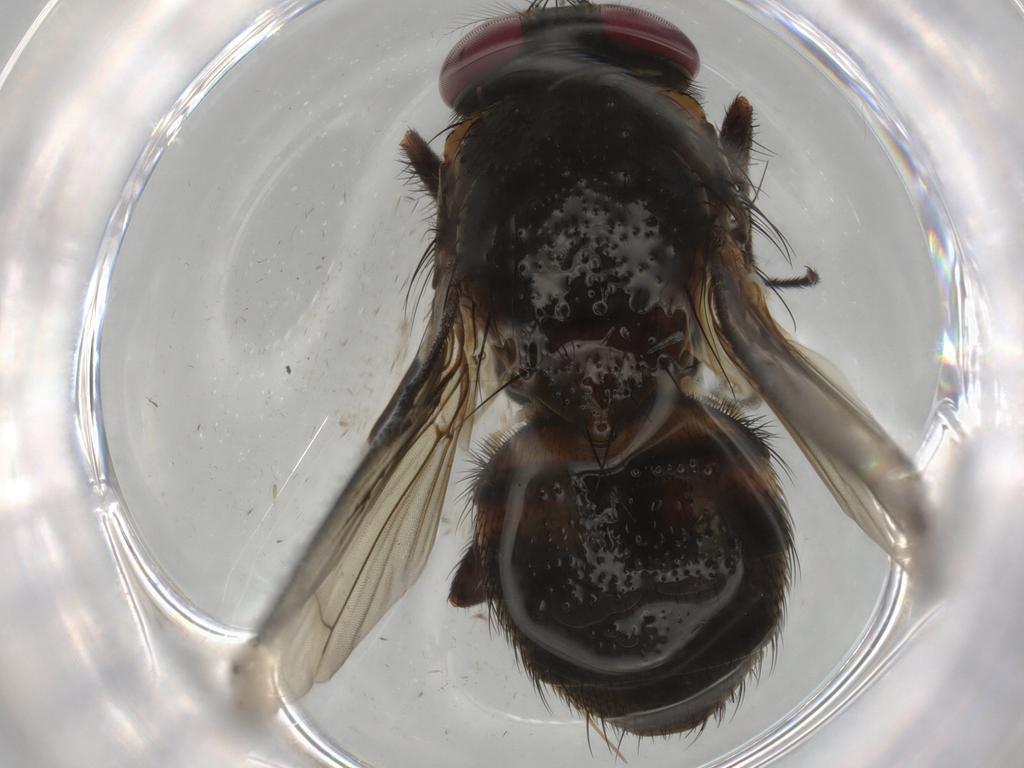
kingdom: Animalia
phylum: Arthropoda
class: Insecta
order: Diptera
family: Muscidae
